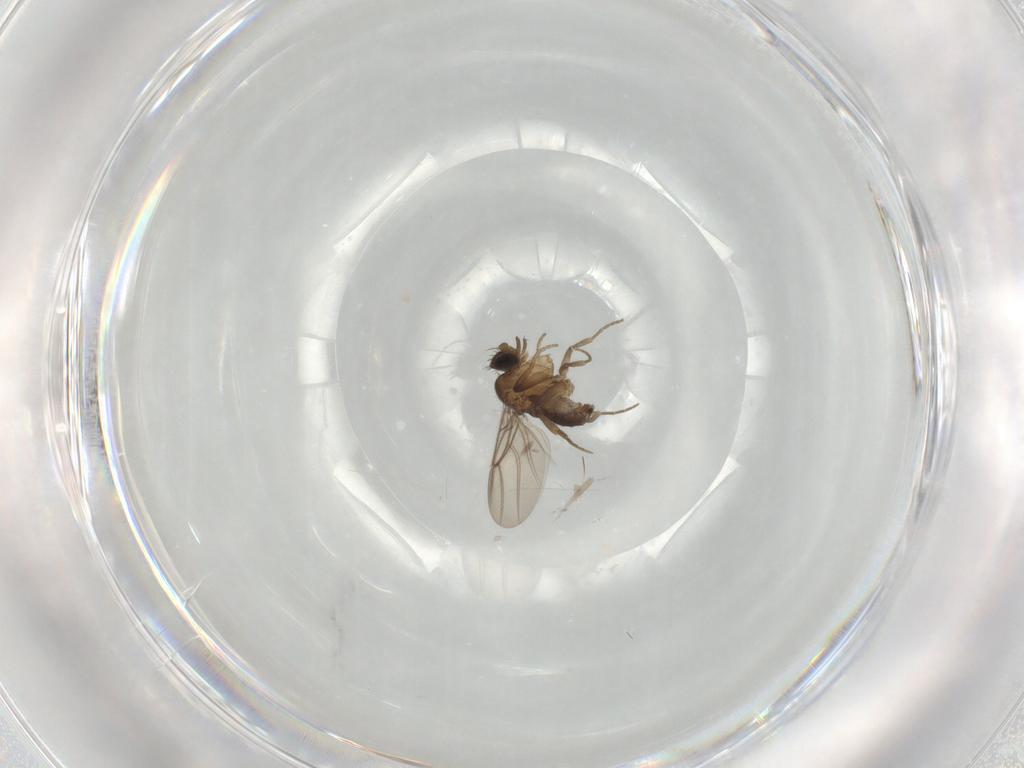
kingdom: Animalia
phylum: Arthropoda
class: Insecta
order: Diptera
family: Phoridae
